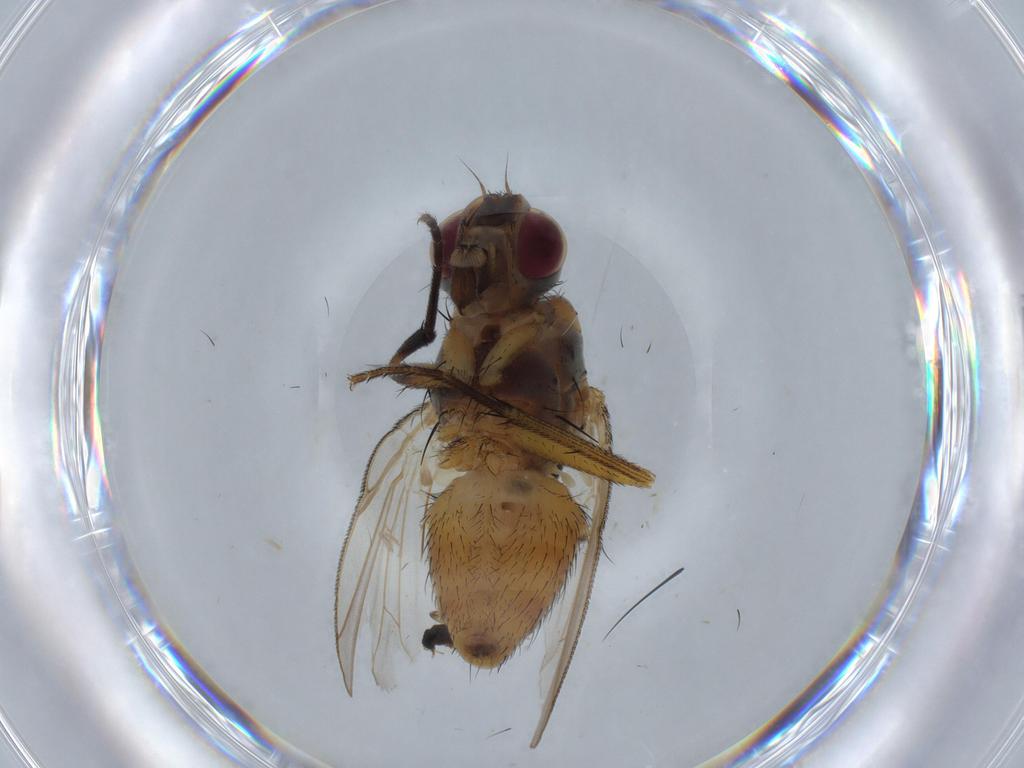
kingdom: Animalia
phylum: Arthropoda
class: Insecta
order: Diptera
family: Muscidae
